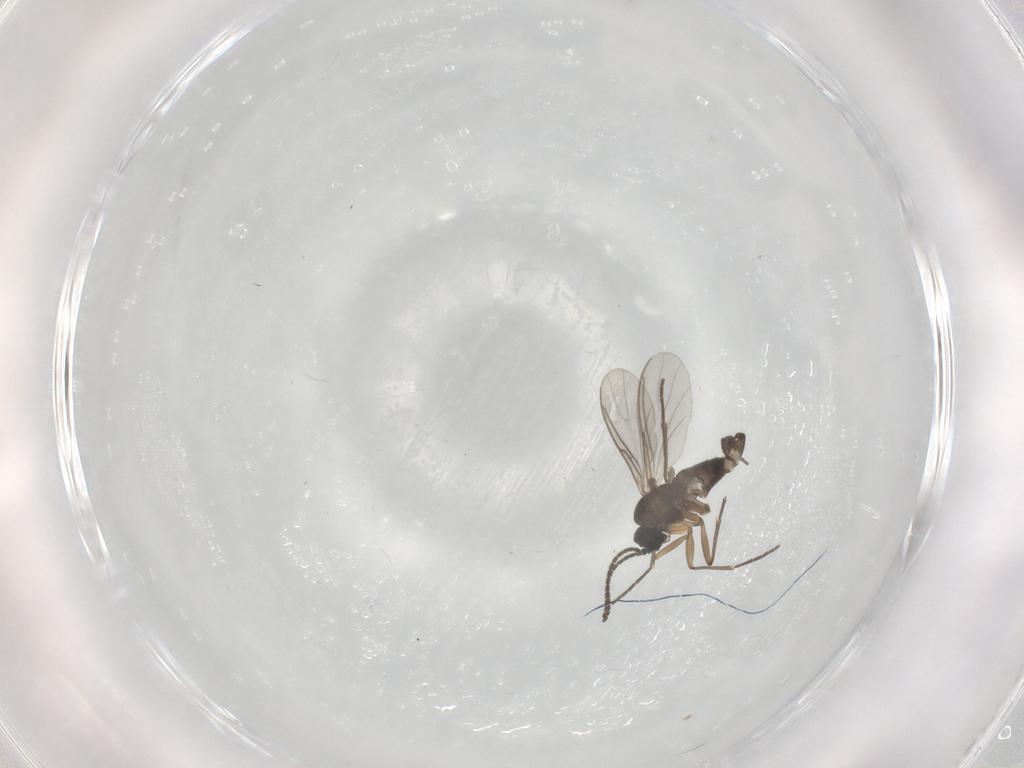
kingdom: Animalia
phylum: Arthropoda
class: Insecta
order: Diptera
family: Sciaridae
